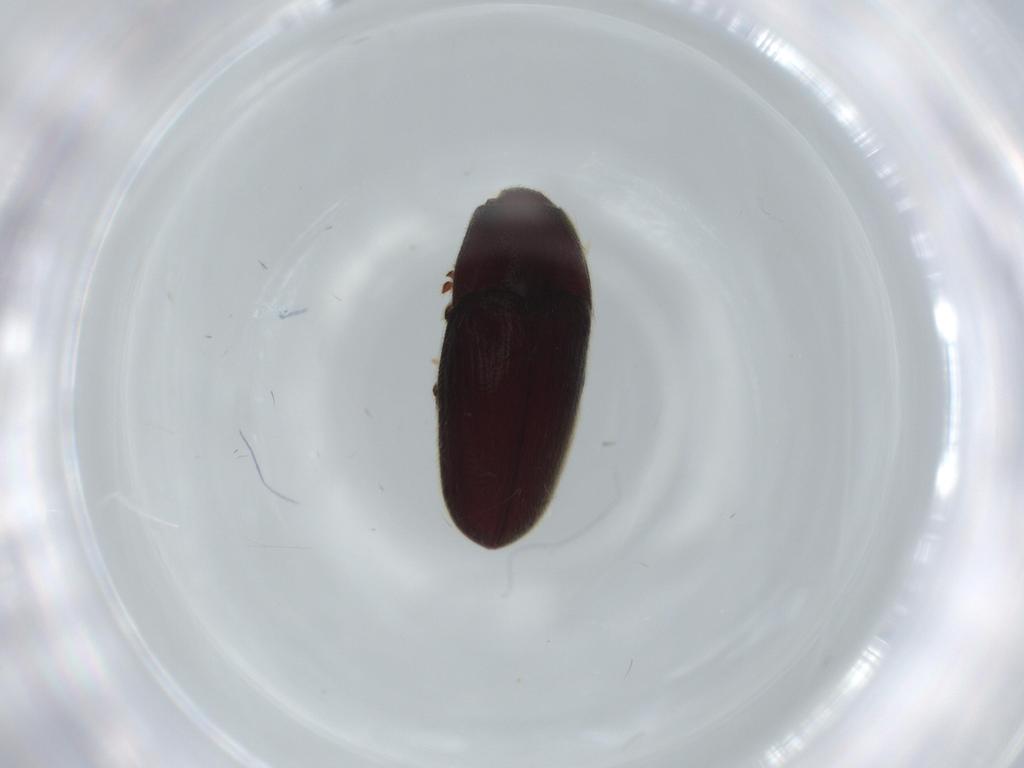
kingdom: Animalia
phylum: Arthropoda
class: Insecta
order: Coleoptera
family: Throscidae
